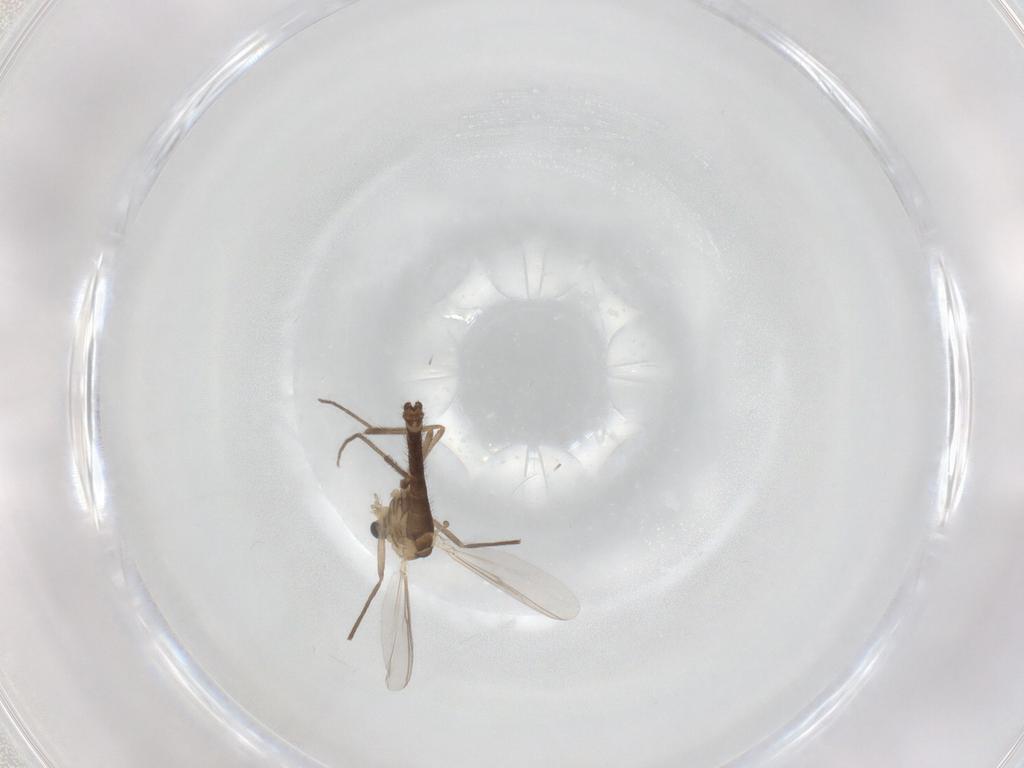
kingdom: Animalia
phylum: Arthropoda
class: Insecta
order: Diptera
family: Chironomidae
